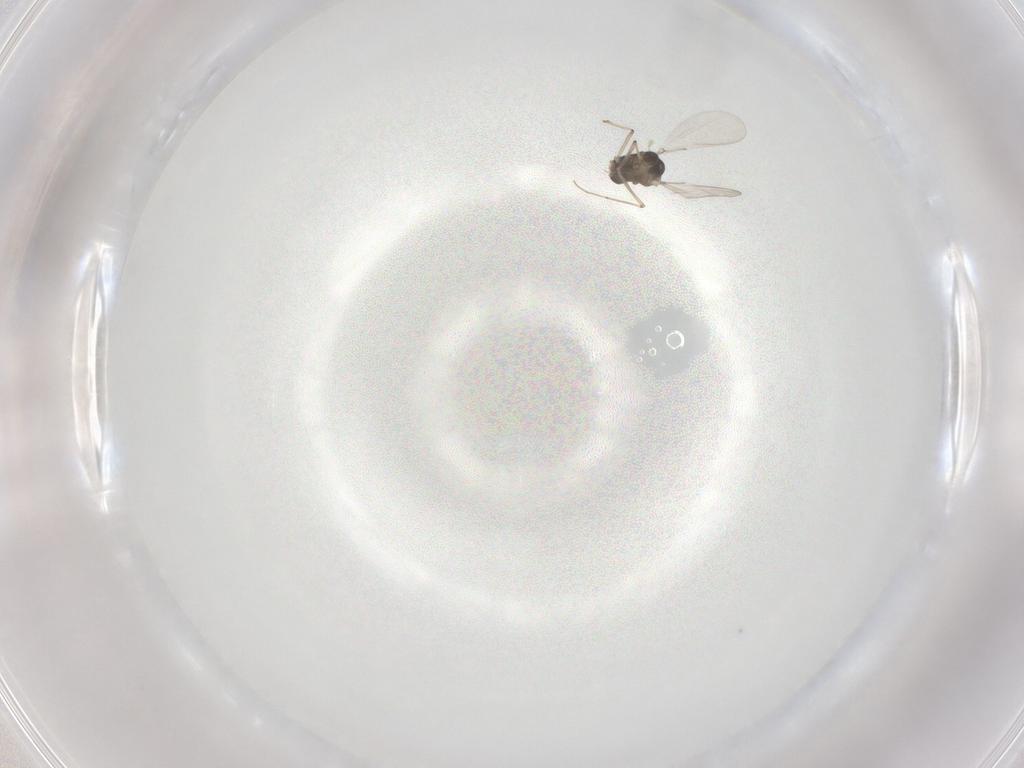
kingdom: Animalia
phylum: Arthropoda
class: Insecta
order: Diptera
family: Chironomidae
